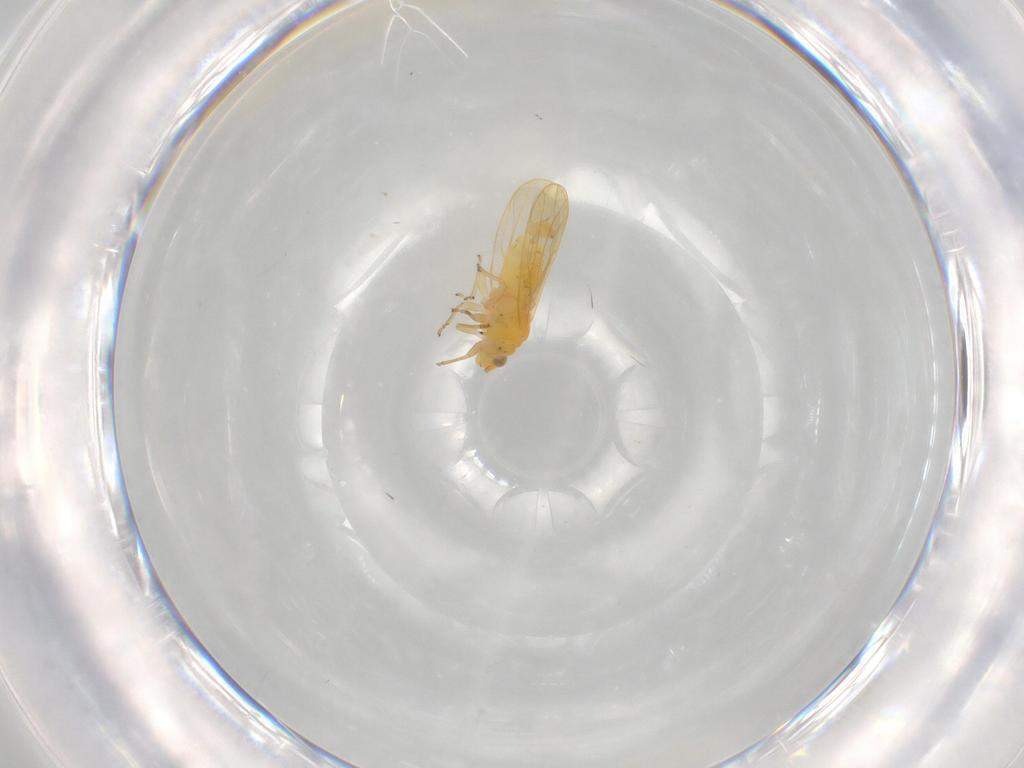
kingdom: Animalia
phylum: Arthropoda
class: Insecta
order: Hemiptera
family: Psyllidae
